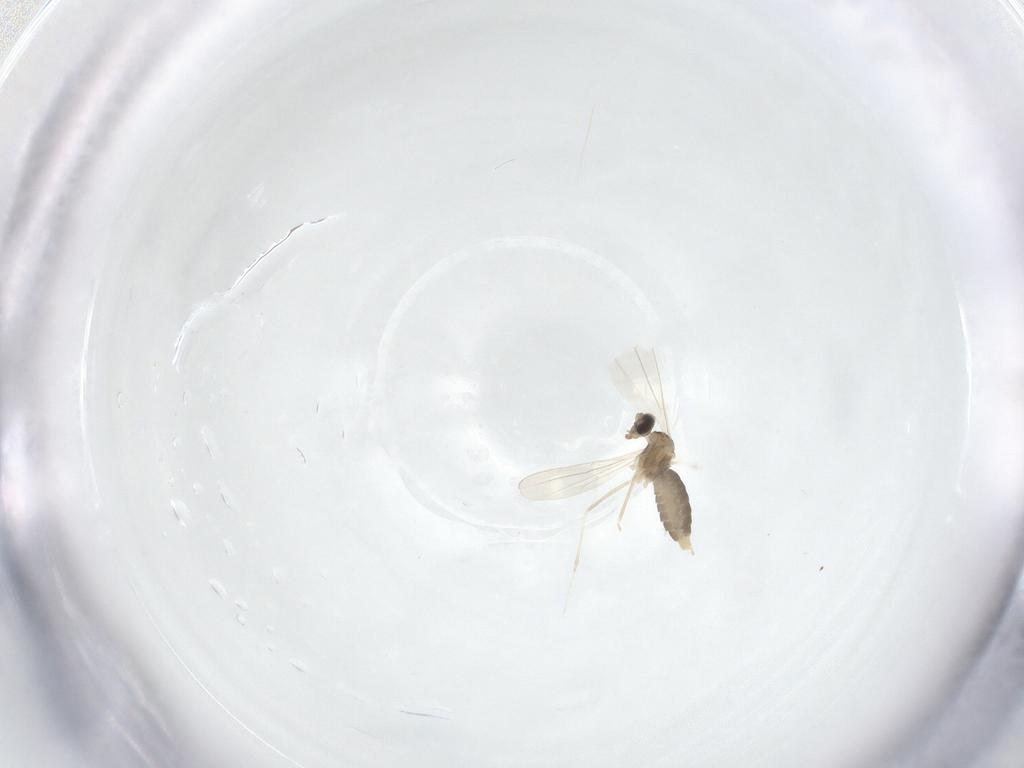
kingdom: Animalia
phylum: Arthropoda
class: Insecta
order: Diptera
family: Cecidomyiidae
